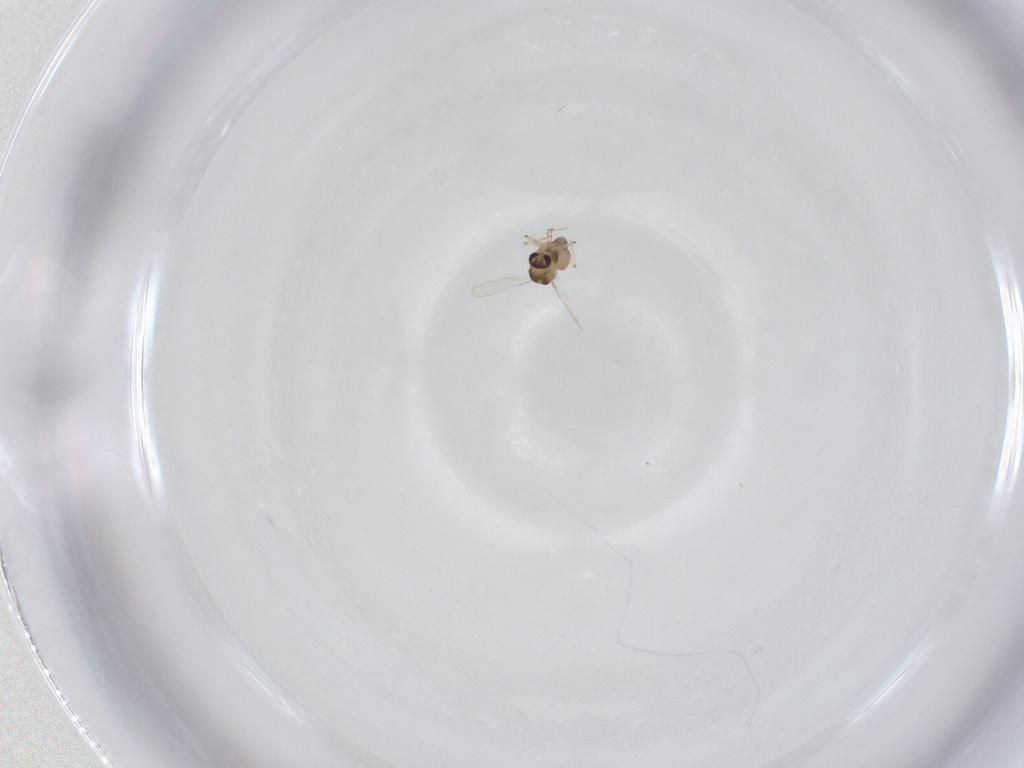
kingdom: Animalia
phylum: Arthropoda
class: Insecta
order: Diptera
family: Chironomidae
